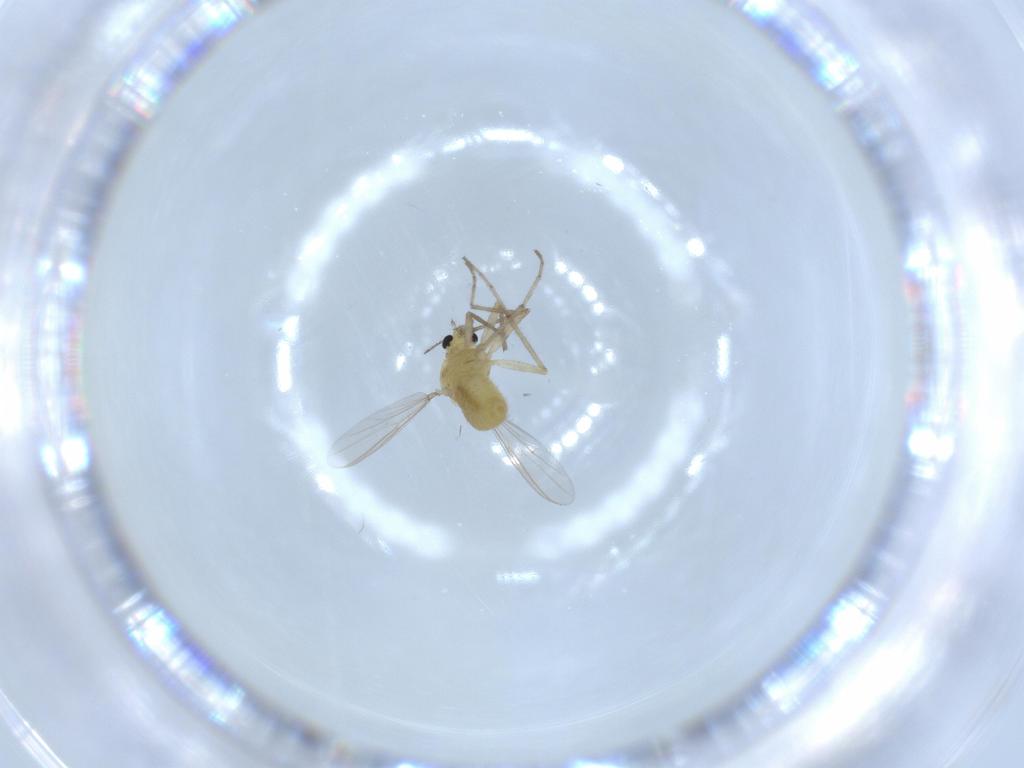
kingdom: Animalia
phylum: Arthropoda
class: Insecta
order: Diptera
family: Chironomidae
